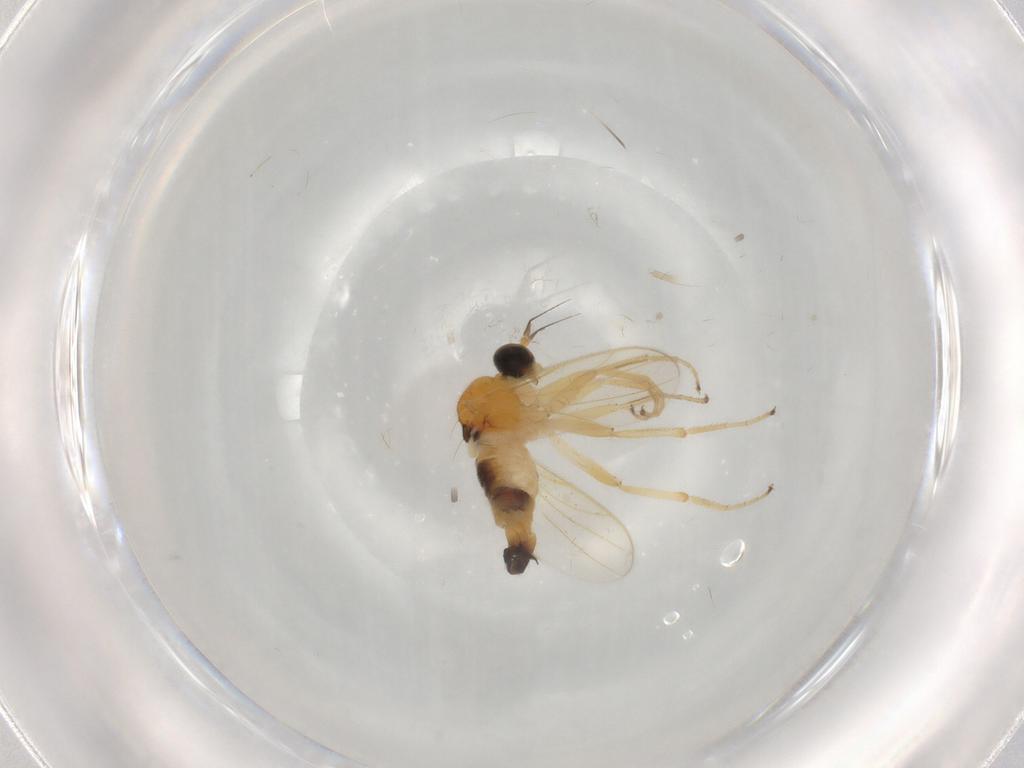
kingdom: Animalia
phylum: Arthropoda
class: Insecta
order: Diptera
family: Hybotidae
